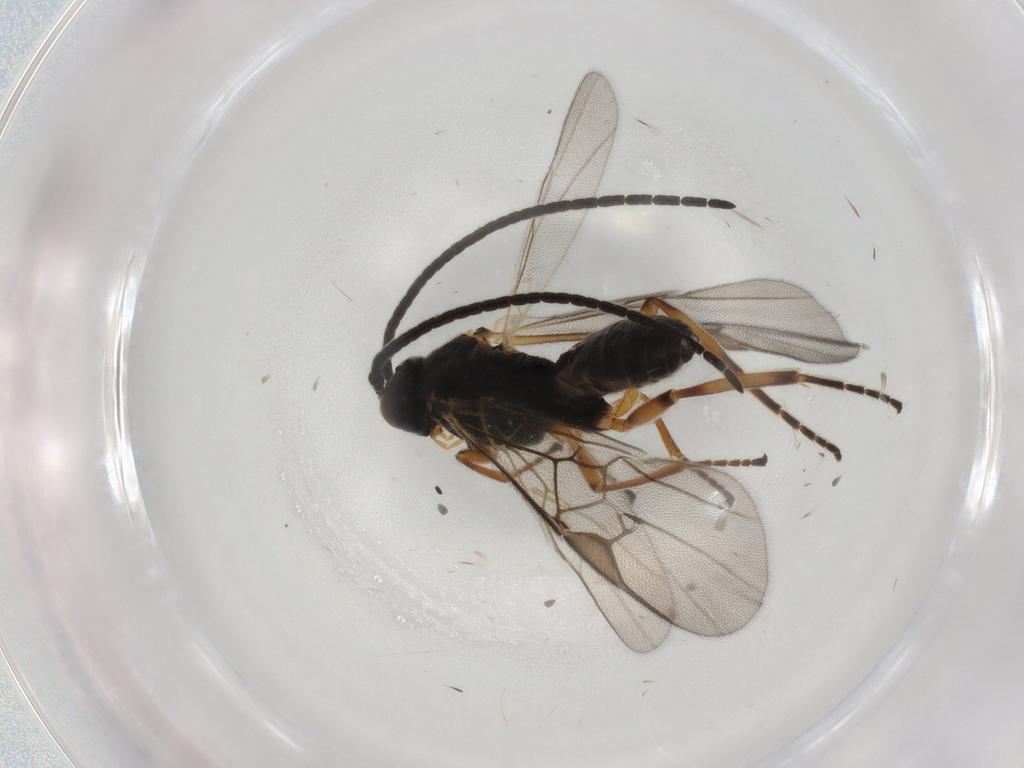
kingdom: Animalia
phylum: Arthropoda
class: Insecta
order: Hymenoptera
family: Braconidae
